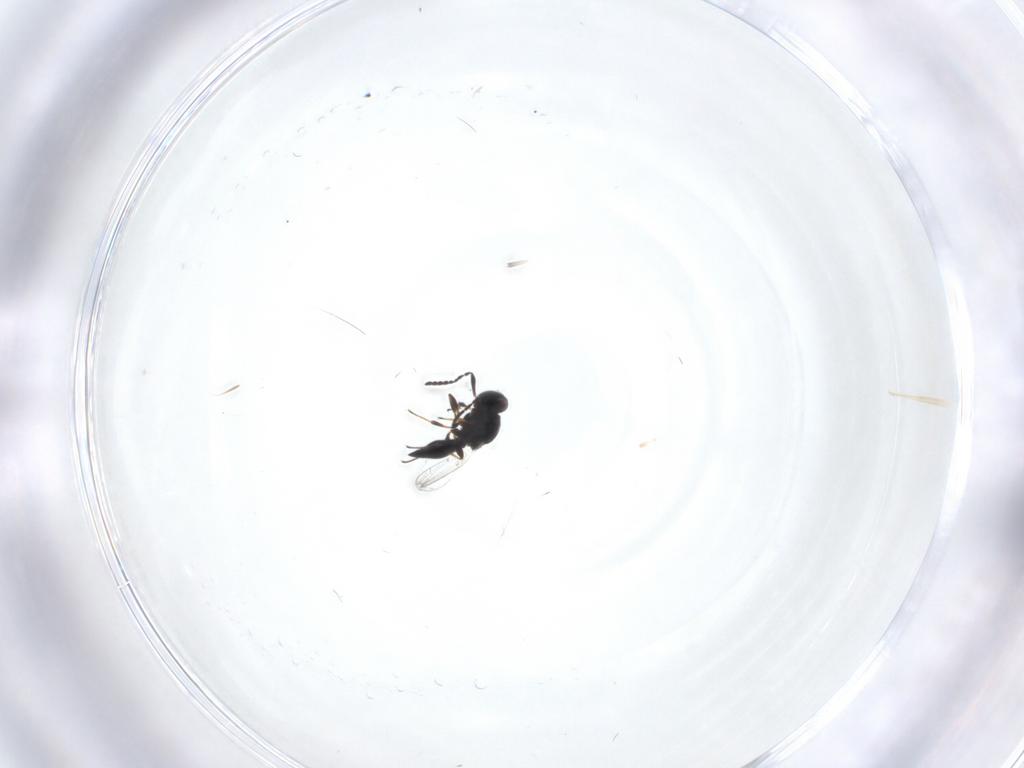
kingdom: Animalia
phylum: Arthropoda
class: Insecta
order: Hymenoptera
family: Platygastridae
